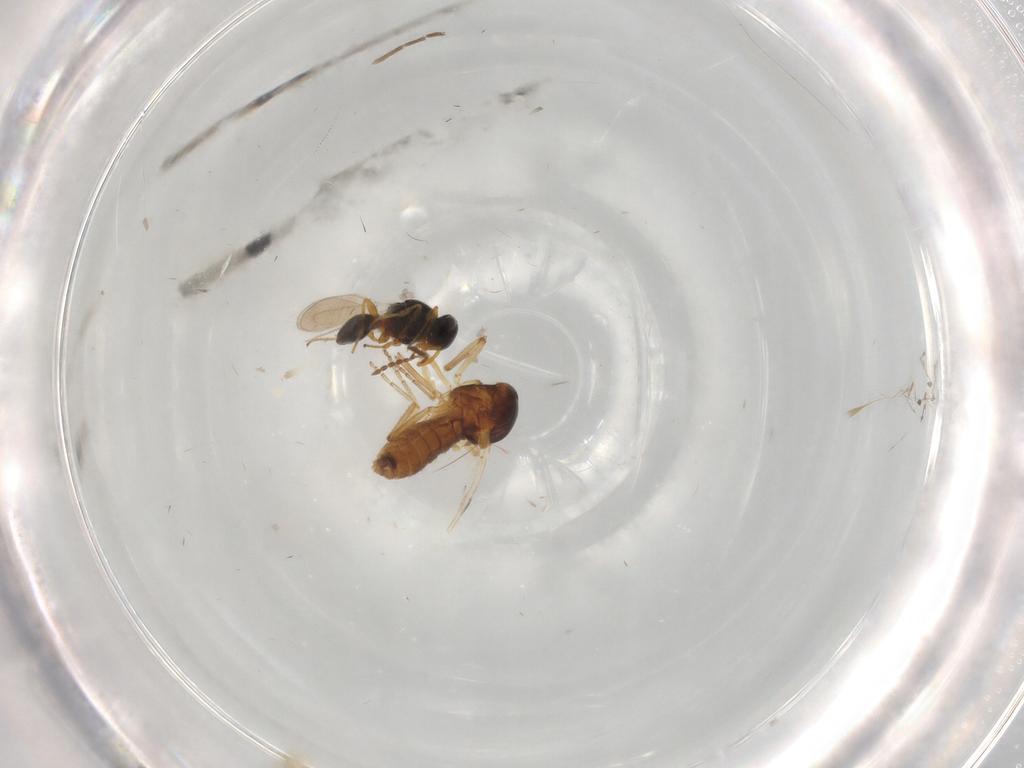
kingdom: Animalia
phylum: Arthropoda
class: Insecta
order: Diptera
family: Ceratopogonidae
